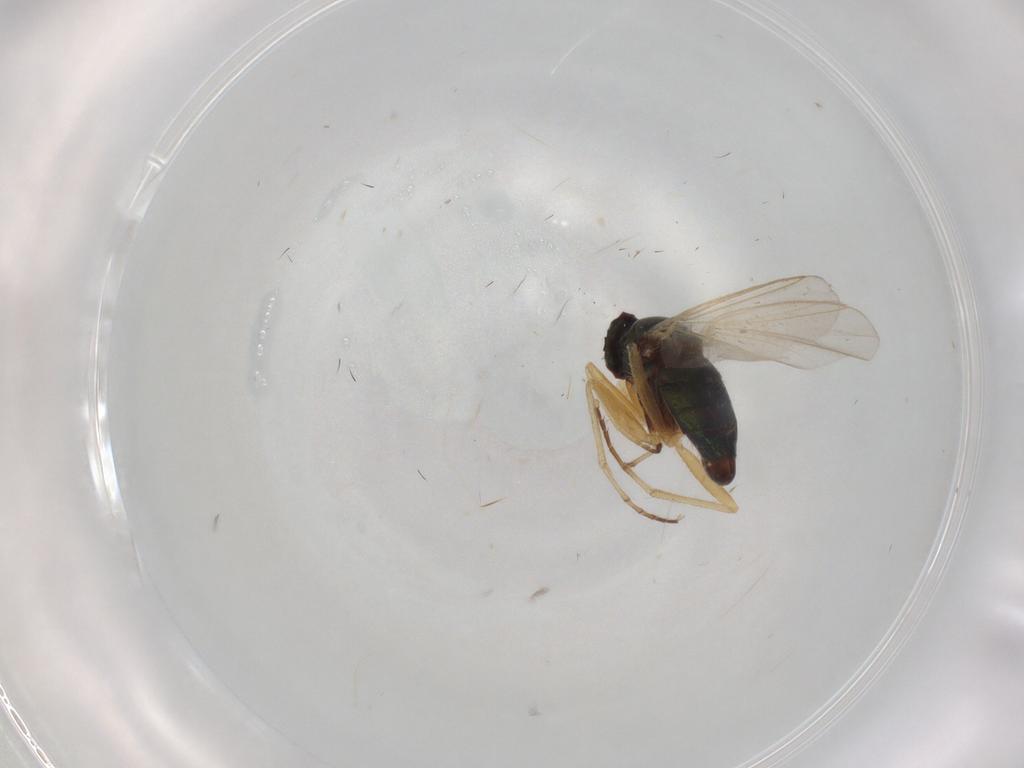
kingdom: Animalia
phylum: Arthropoda
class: Insecta
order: Diptera
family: Dolichopodidae
